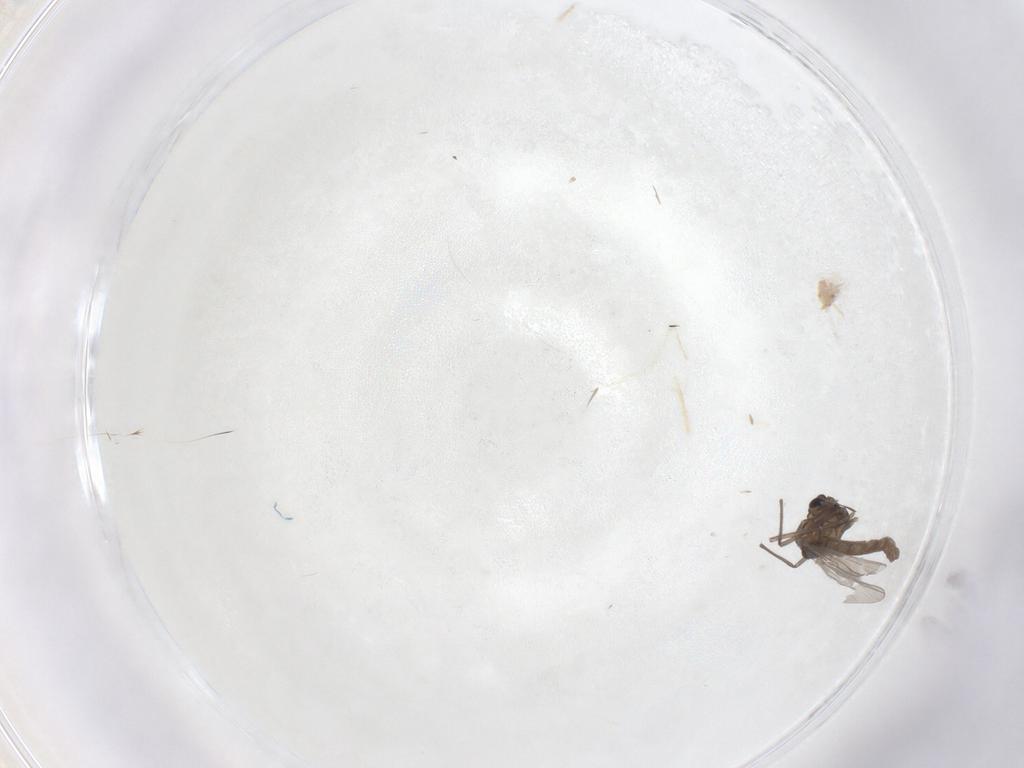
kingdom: Animalia
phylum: Arthropoda
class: Insecta
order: Diptera
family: Chironomidae
